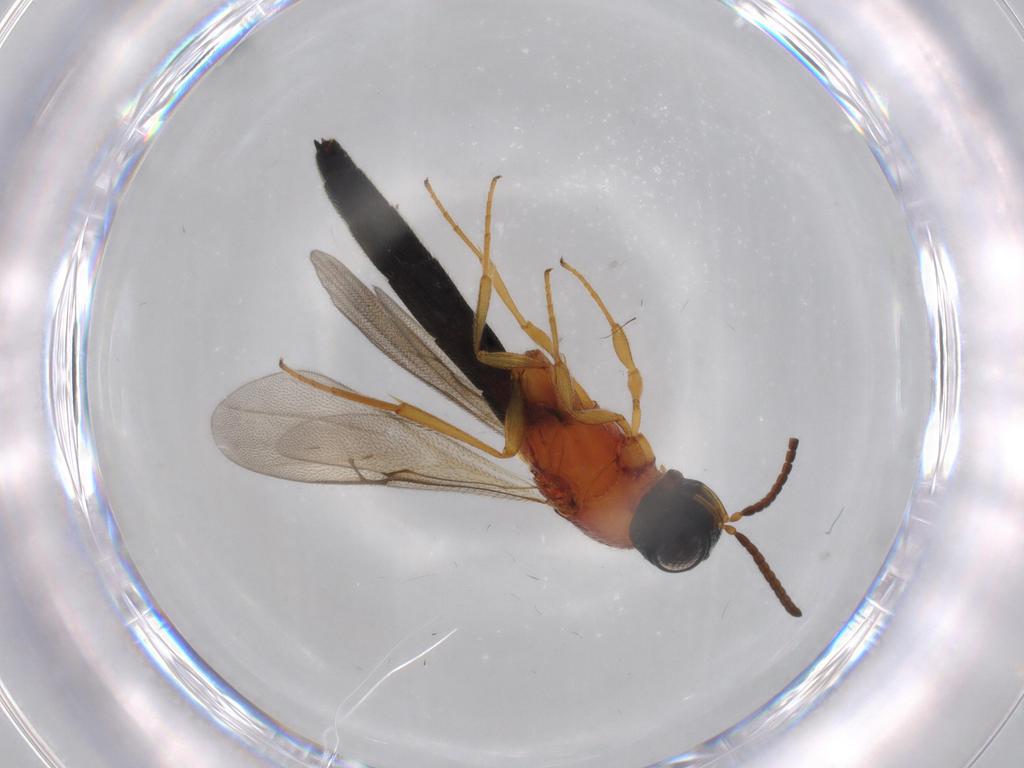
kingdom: Animalia
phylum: Arthropoda
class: Insecta
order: Hymenoptera
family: Scelionidae
